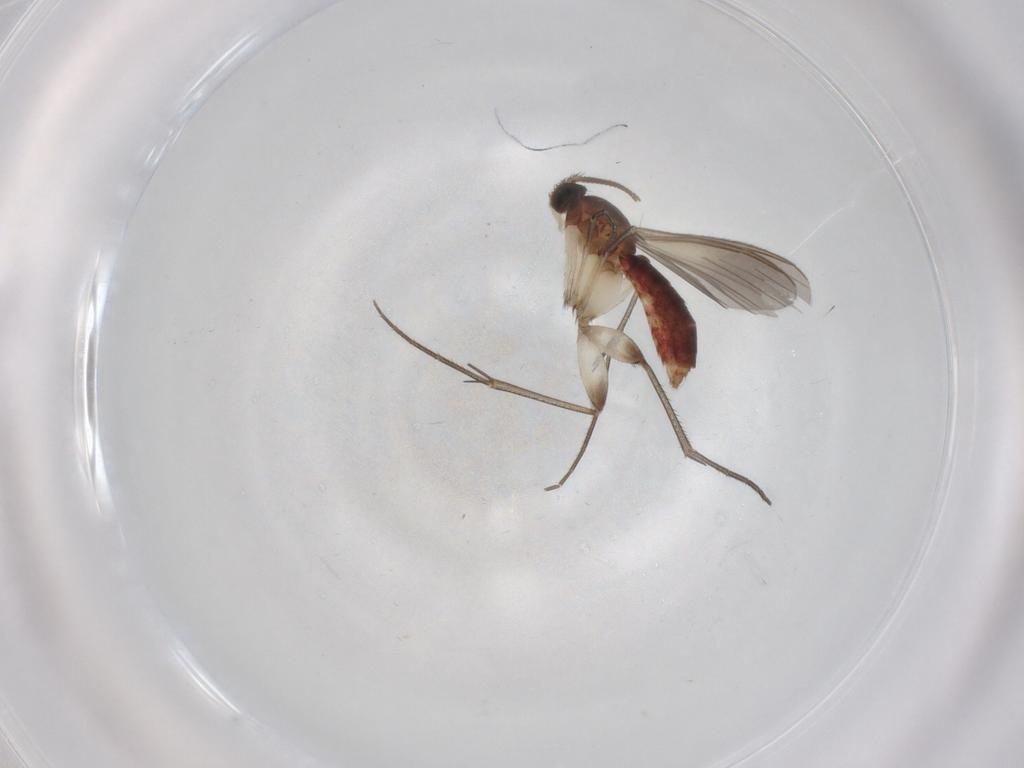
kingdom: Animalia
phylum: Arthropoda
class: Insecta
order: Diptera
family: Mycetophilidae
